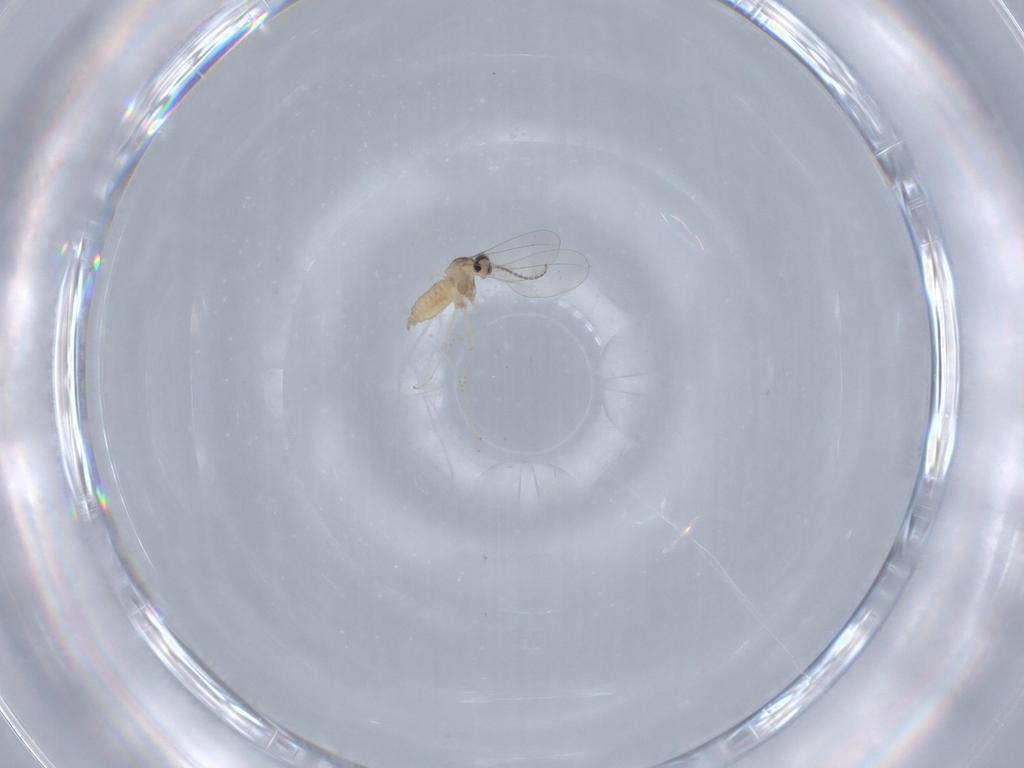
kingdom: Animalia
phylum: Arthropoda
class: Insecta
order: Diptera
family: Cecidomyiidae
